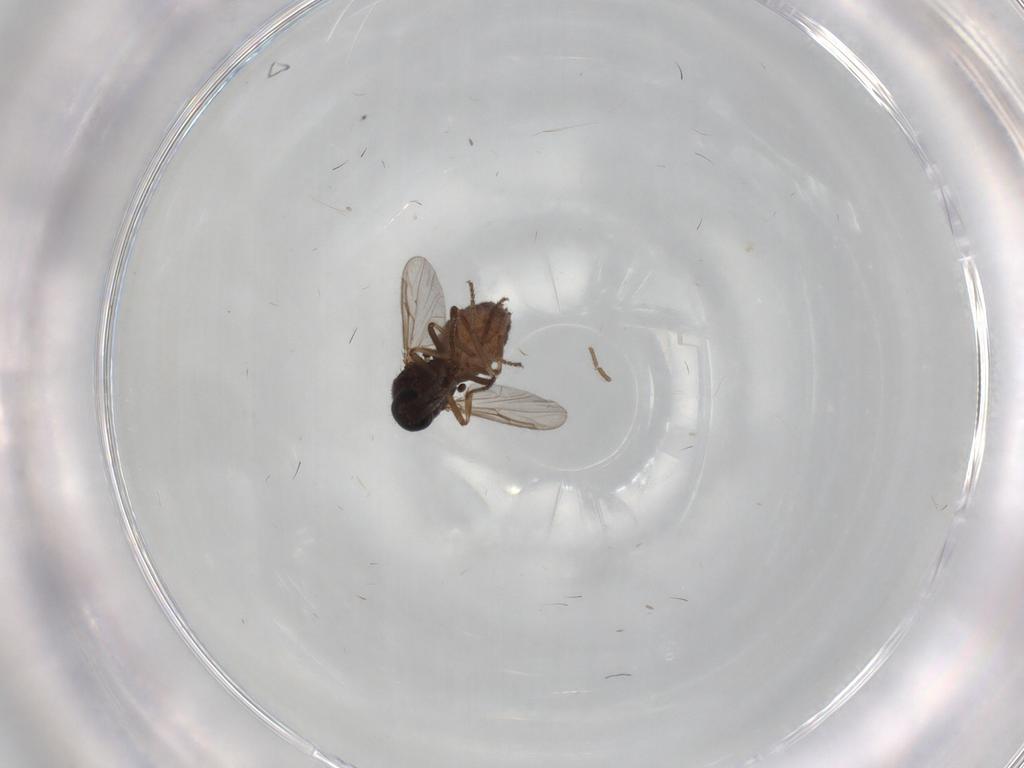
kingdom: Animalia
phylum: Arthropoda
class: Insecta
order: Diptera
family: Ceratopogonidae
